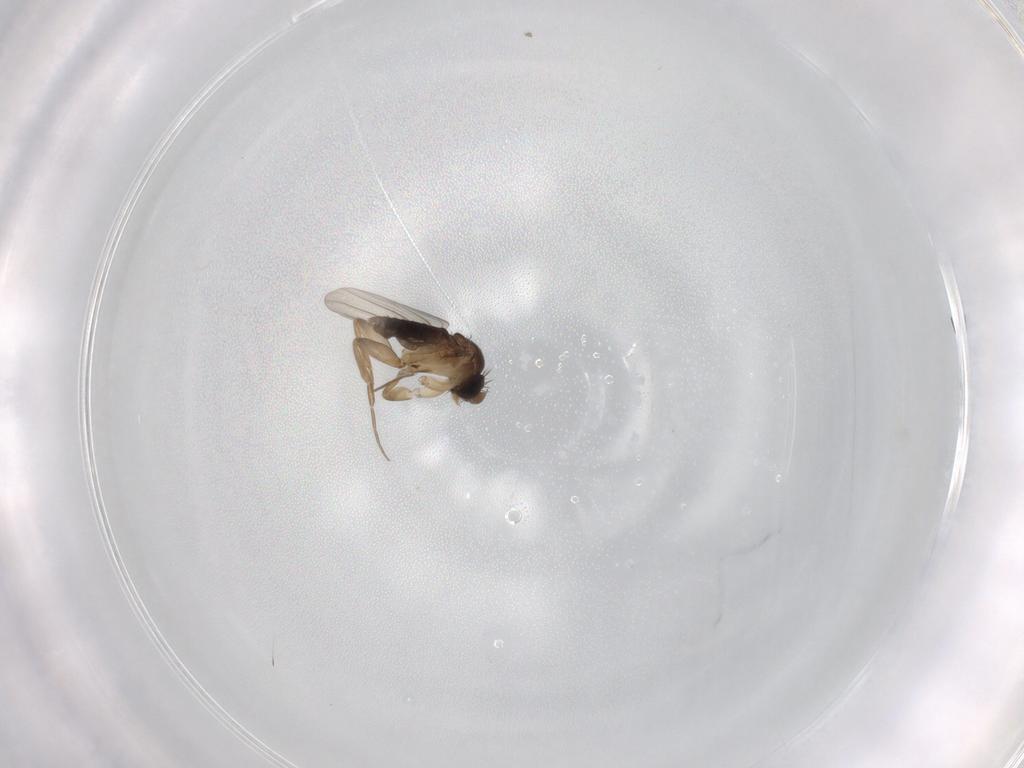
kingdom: Animalia
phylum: Arthropoda
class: Insecta
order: Diptera
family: Phoridae
